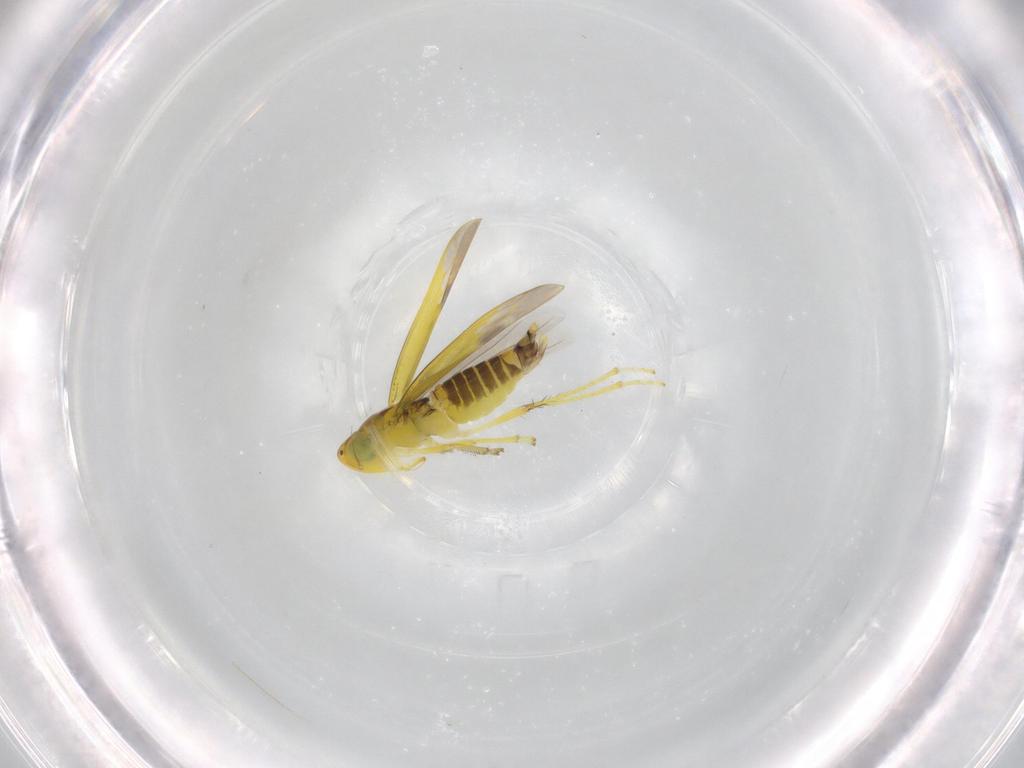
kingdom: Animalia
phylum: Arthropoda
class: Insecta
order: Hemiptera
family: Cicadellidae
